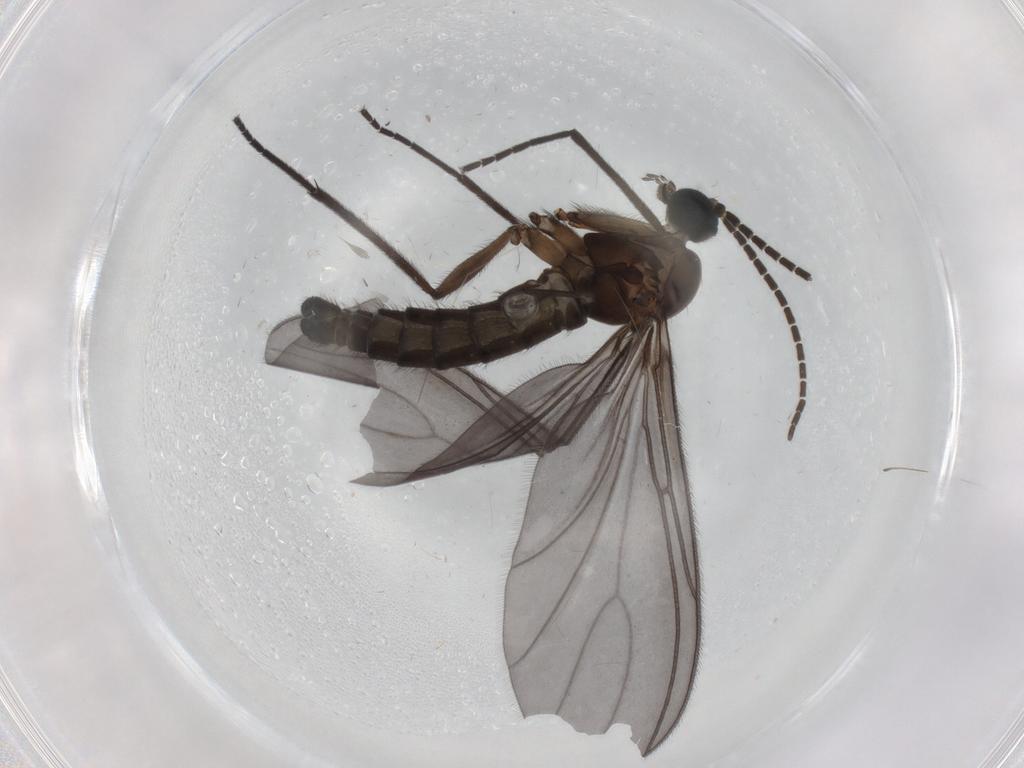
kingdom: Animalia
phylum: Arthropoda
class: Insecta
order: Diptera
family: Sciaridae
